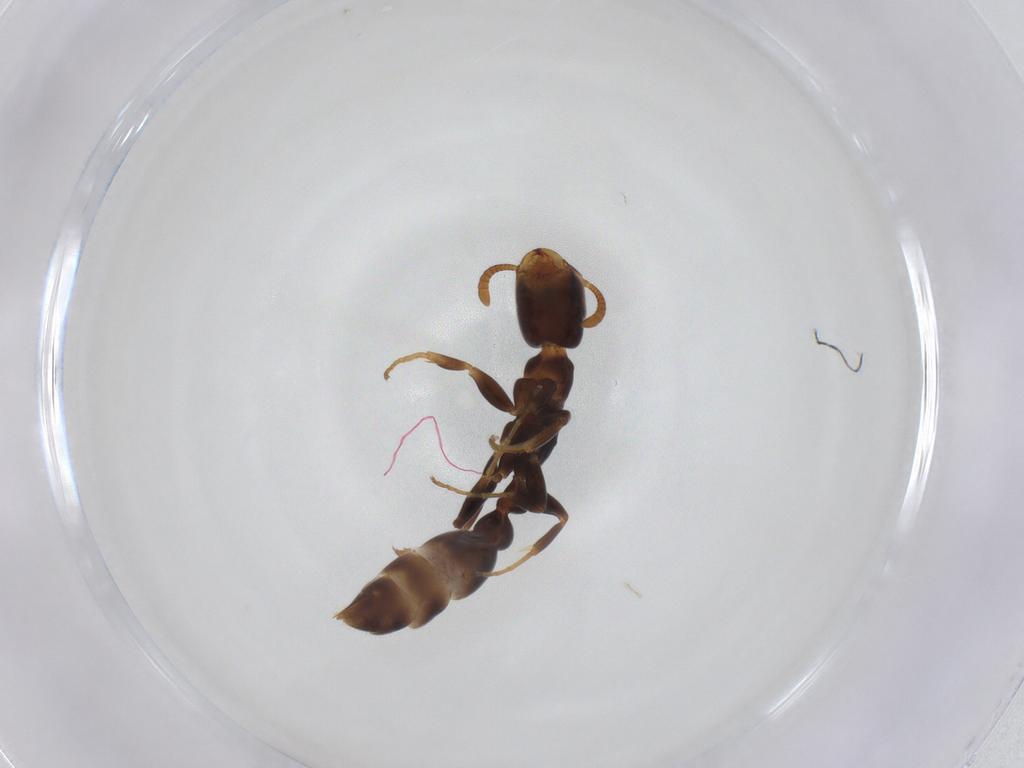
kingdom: Animalia
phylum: Arthropoda
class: Insecta
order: Hymenoptera
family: Formicidae
